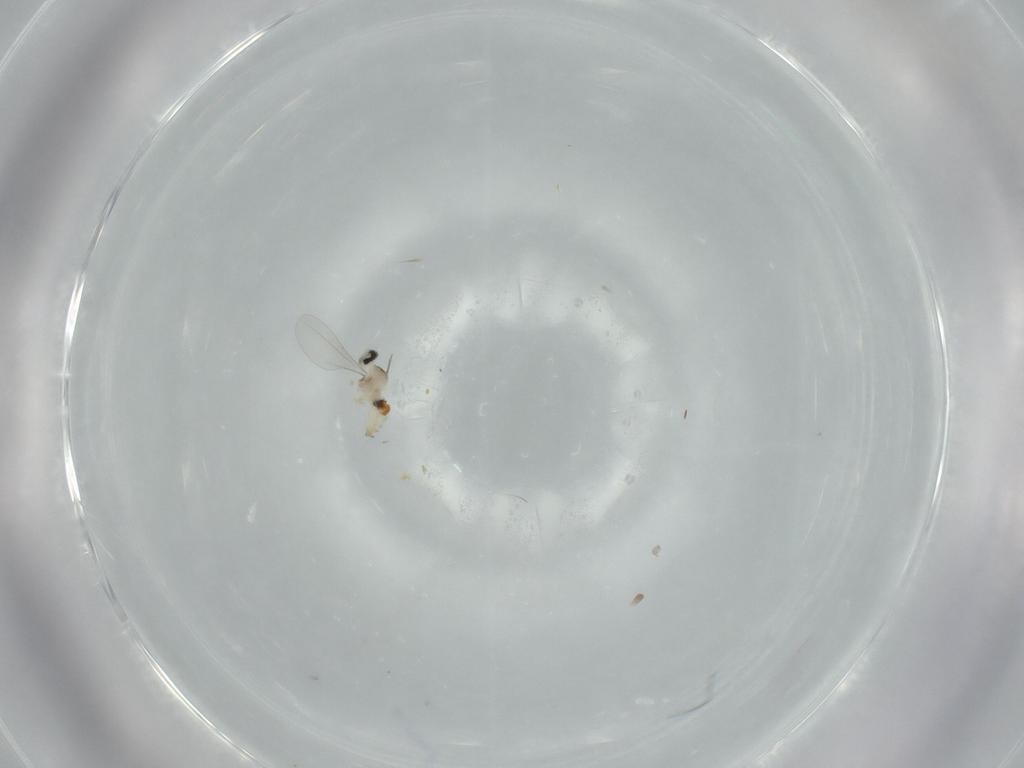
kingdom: Animalia
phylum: Arthropoda
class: Insecta
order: Diptera
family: Cecidomyiidae
